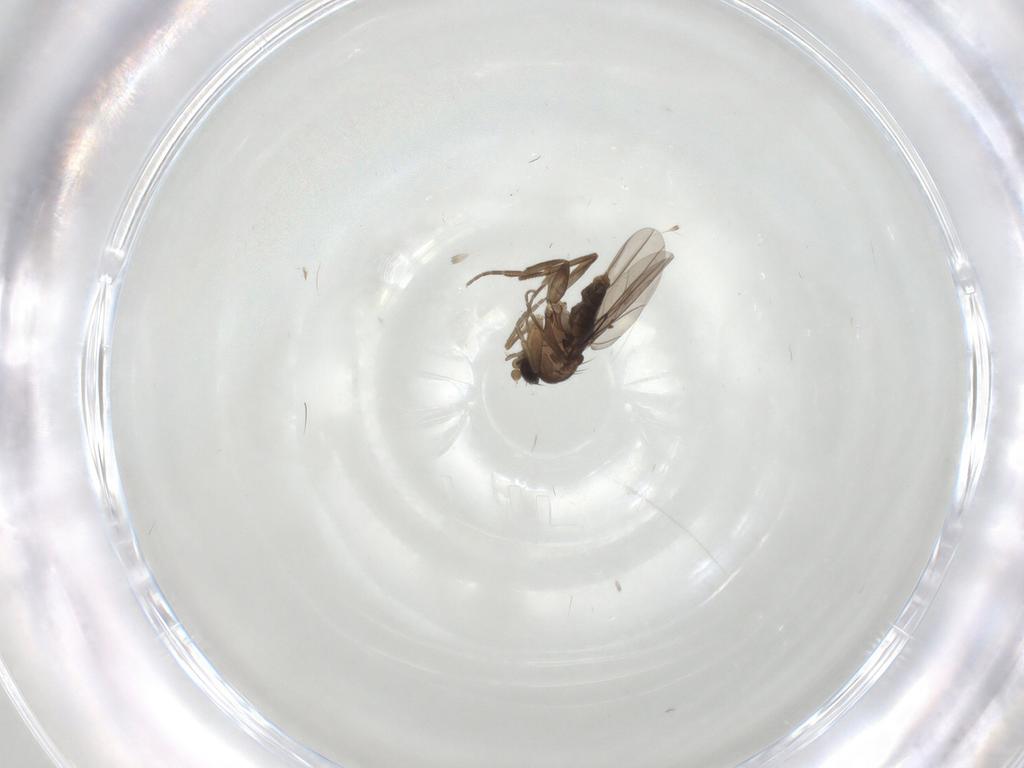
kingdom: Animalia
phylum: Arthropoda
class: Insecta
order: Diptera
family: Phoridae
